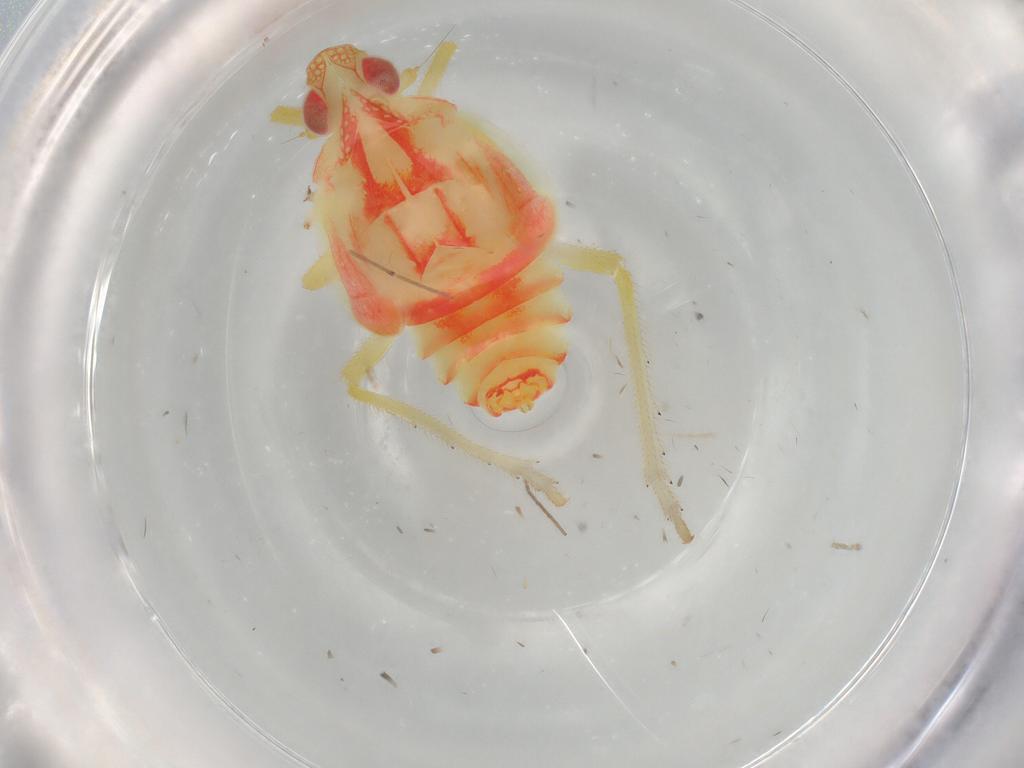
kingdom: Animalia
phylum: Arthropoda
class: Insecta
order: Hemiptera
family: Tropiduchidae
